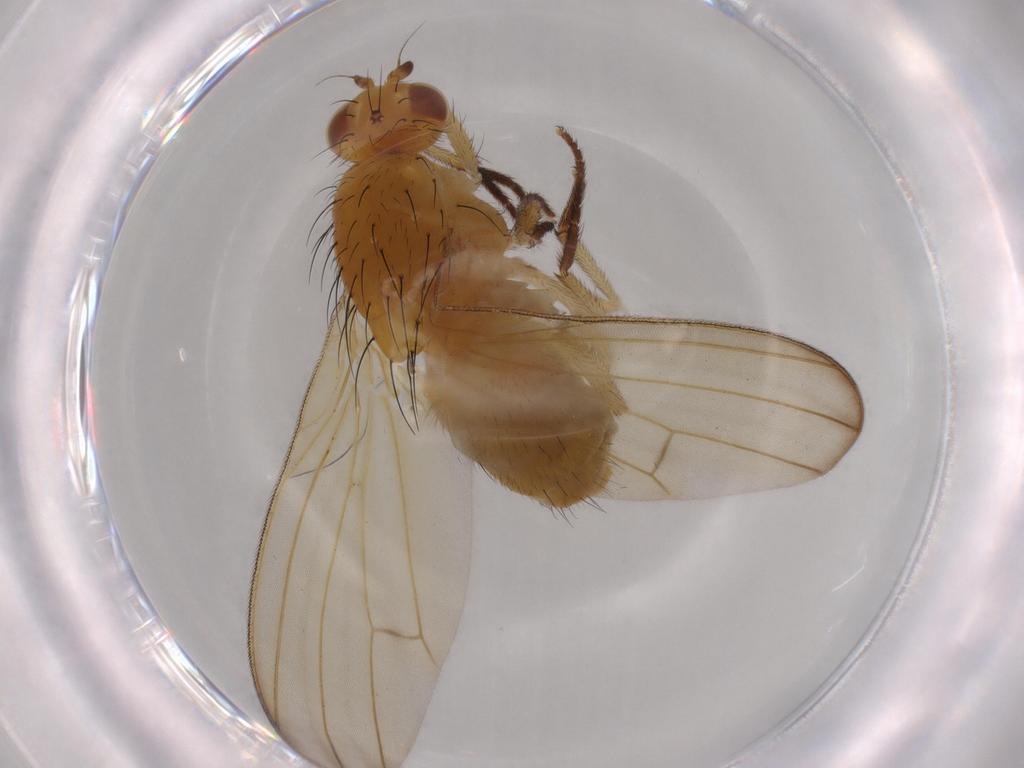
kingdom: Animalia
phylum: Arthropoda
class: Insecta
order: Diptera
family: Lauxaniidae
